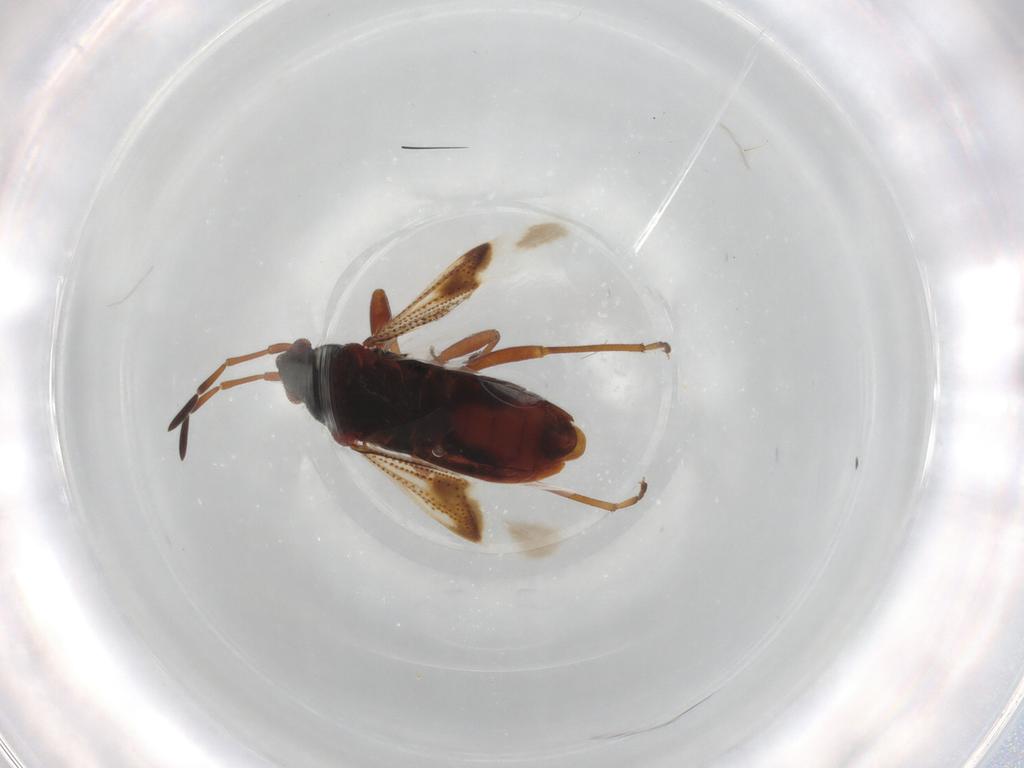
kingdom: Animalia
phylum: Arthropoda
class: Insecta
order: Hemiptera
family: Rhyparochromidae
